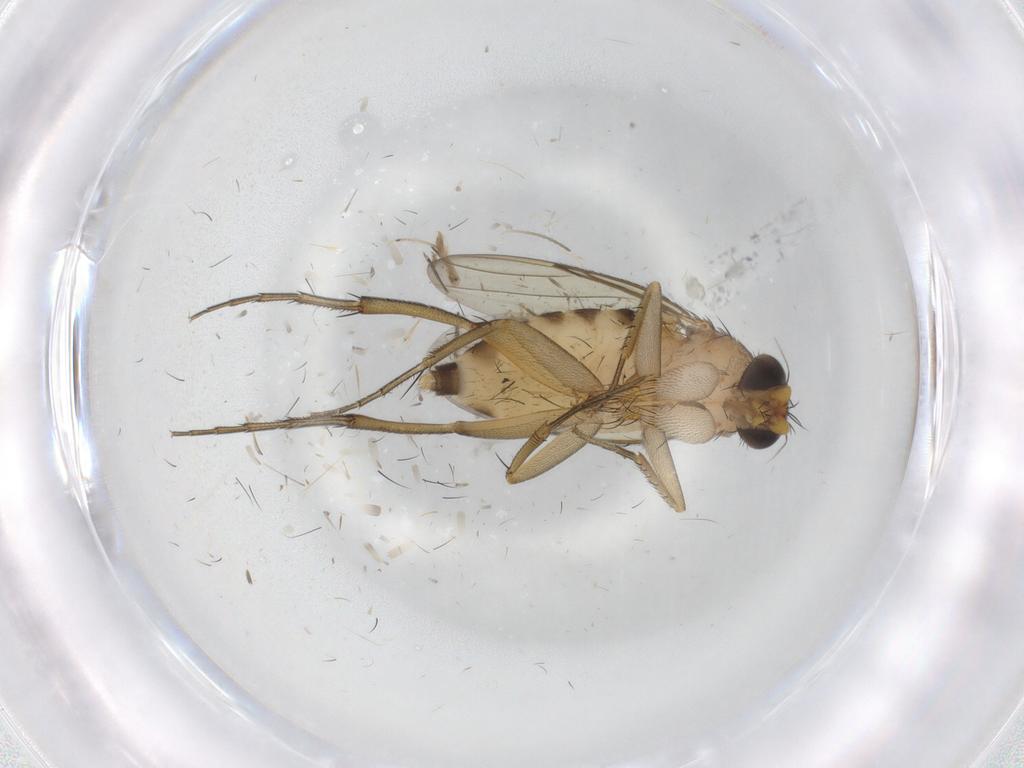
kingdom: Animalia
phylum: Arthropoda
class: Insecta
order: Diptera
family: Cecidomyiidae
